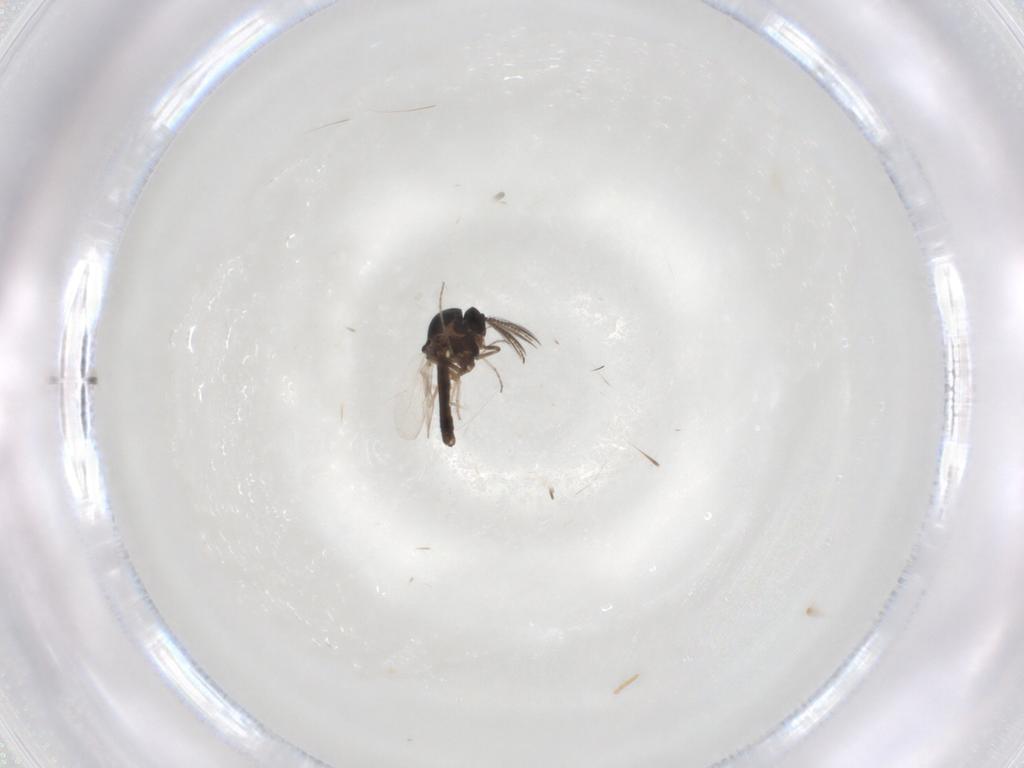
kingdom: Animalia
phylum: Arthropoda
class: Insecta
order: Diptera
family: Ceratopogonidae
